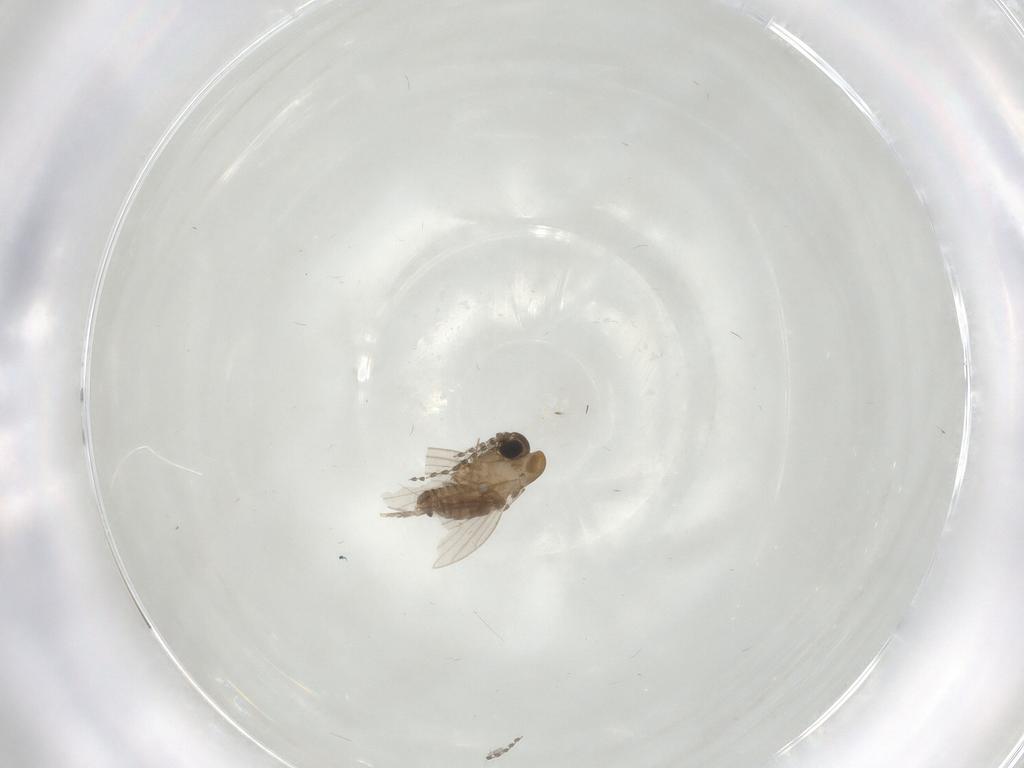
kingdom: Animalia
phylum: Arthropoda
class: Insecta
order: Diptera
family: Psychodidae
